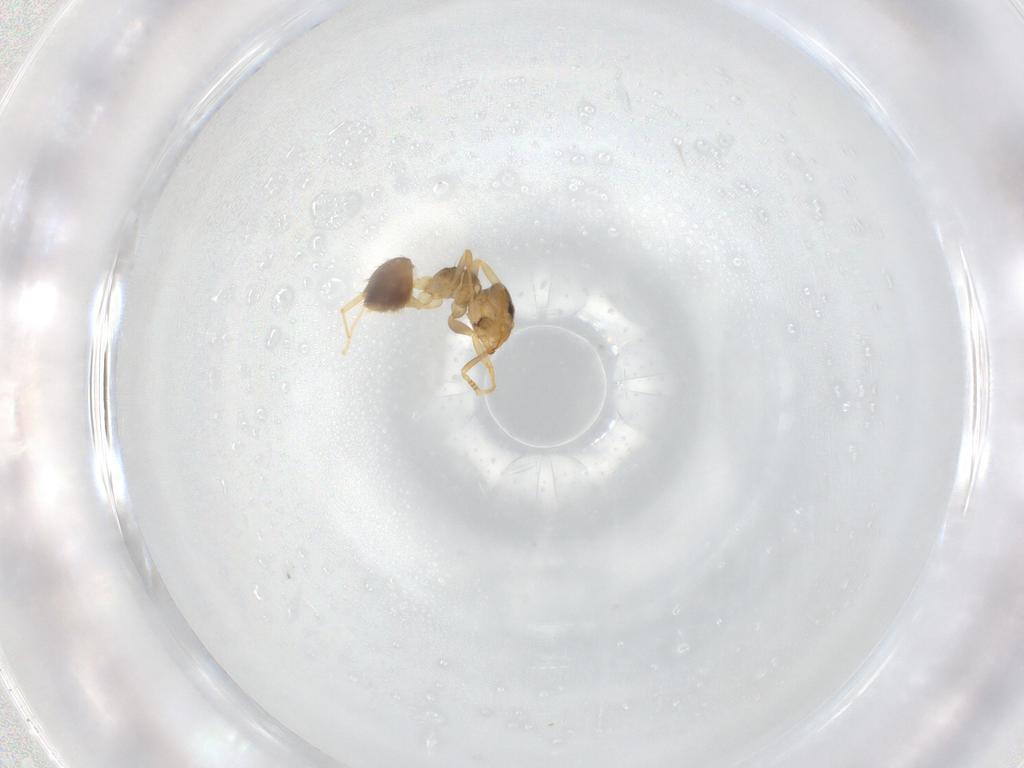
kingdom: Animalia
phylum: Arthropoda
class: Insecta
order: Hymenoptera
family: Formicidae
